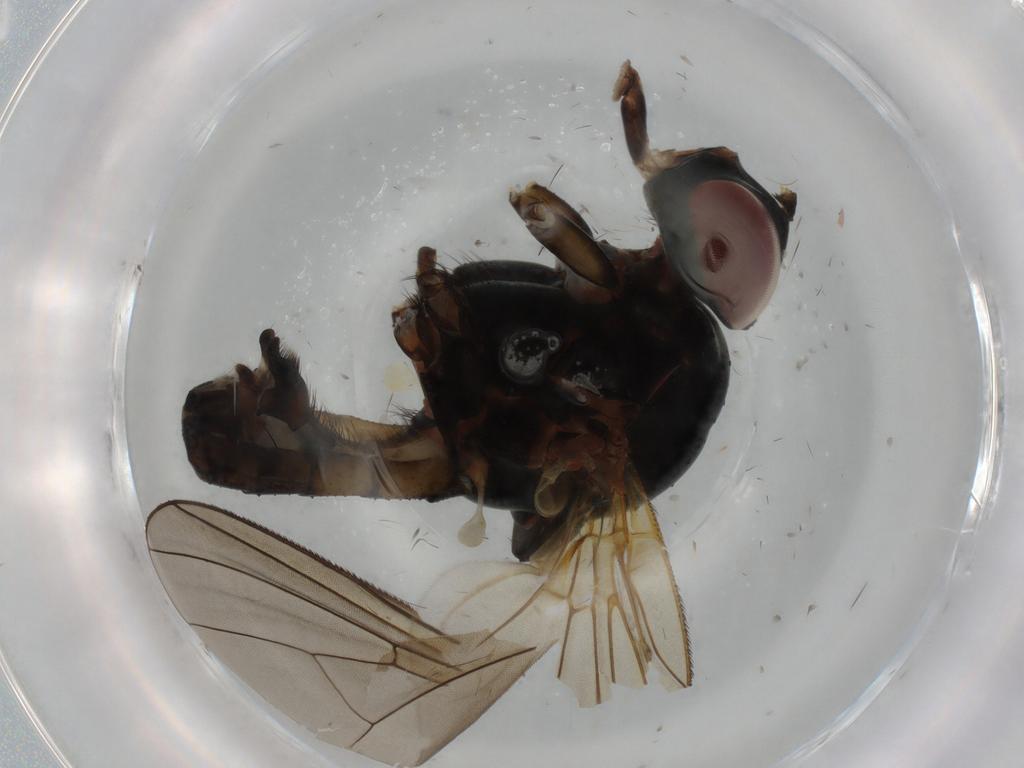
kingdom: Animalia
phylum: Arthropoda
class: Insecta
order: Diptera
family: Anthomyiidae
